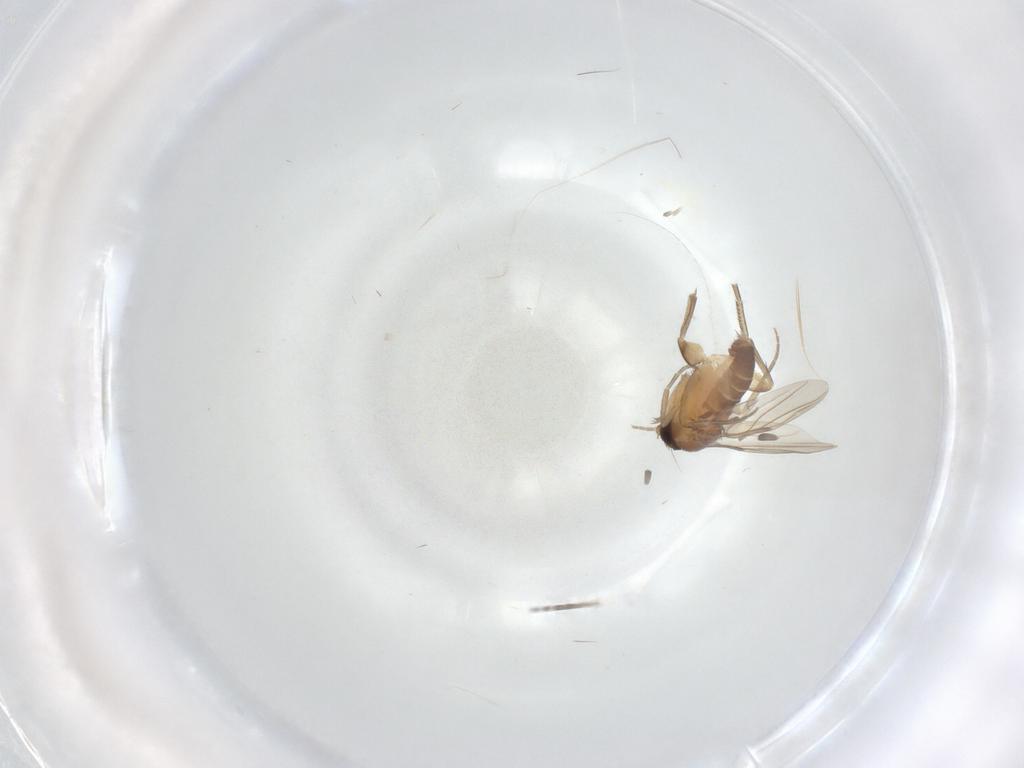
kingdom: Animalia
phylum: Arthropoda
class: Insecta
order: Diptera
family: Phoridae
